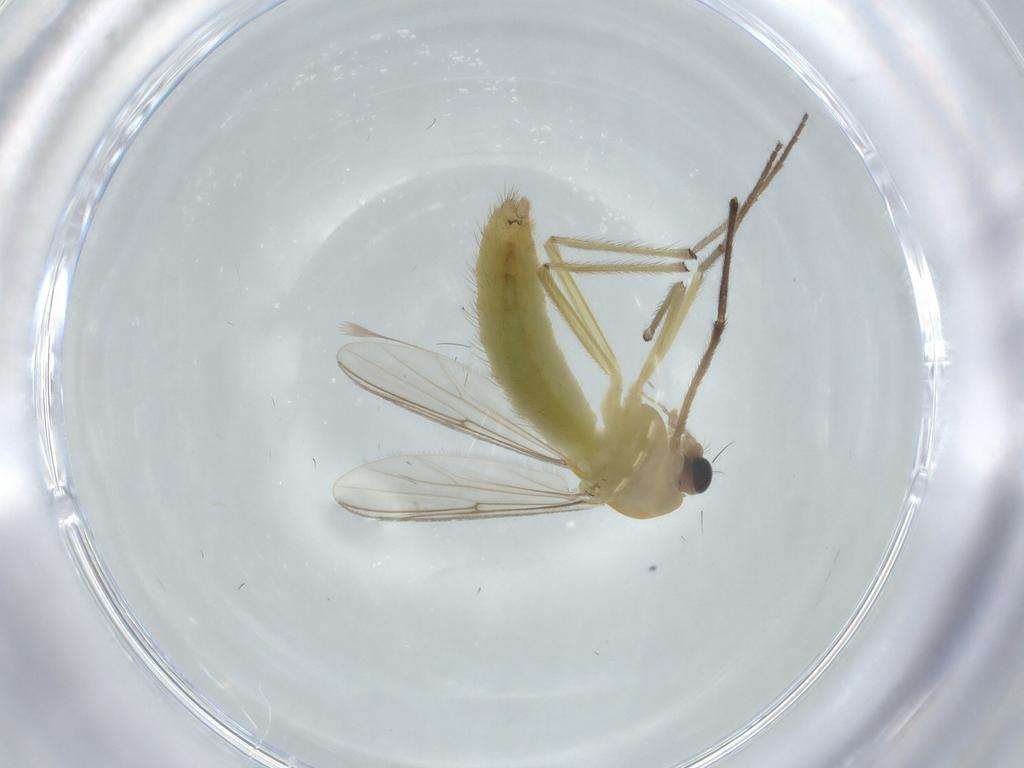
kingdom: Animalia
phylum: Arthropoda
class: Insecta
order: Diptera
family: Chironomidae
